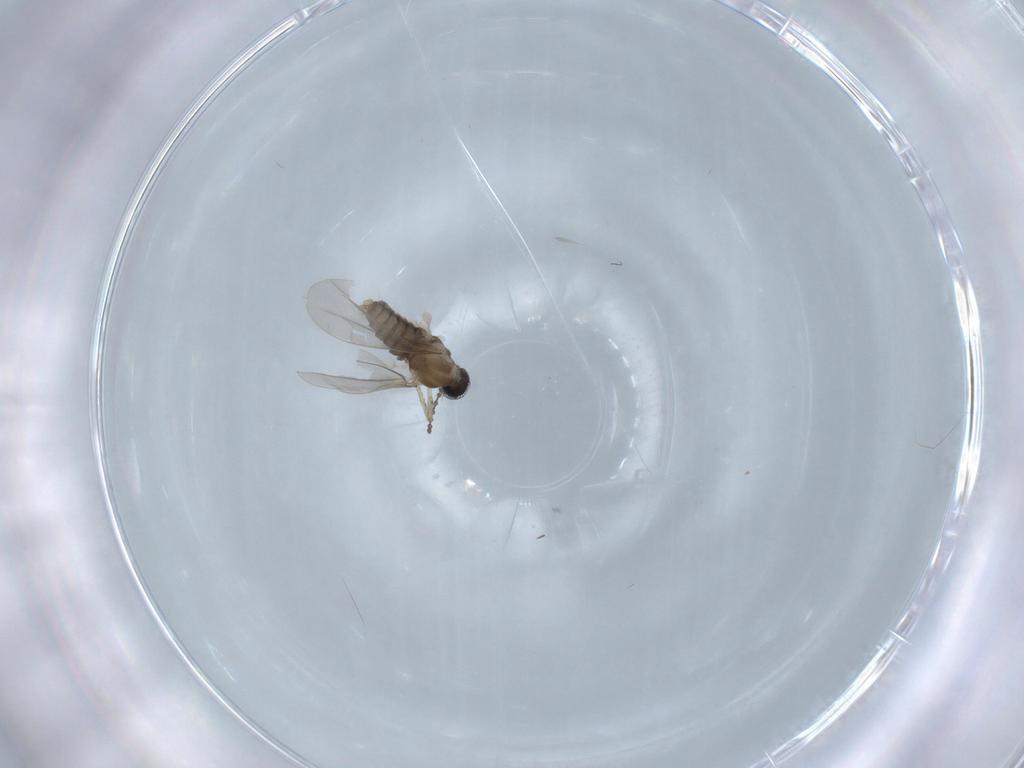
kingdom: Animalia
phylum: Arthropoda
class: Insecta
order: Diptera
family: Cecidomyiidae
